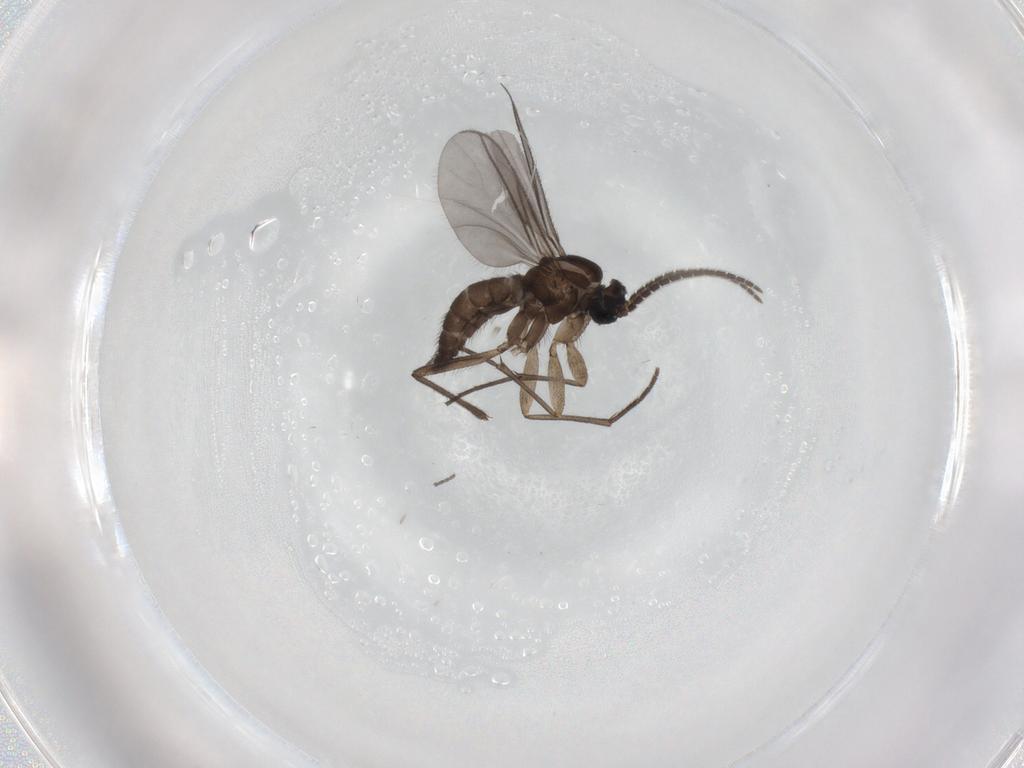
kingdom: Animalia
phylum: Arthropoda
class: Insecta
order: Diptera
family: Sciaridae
